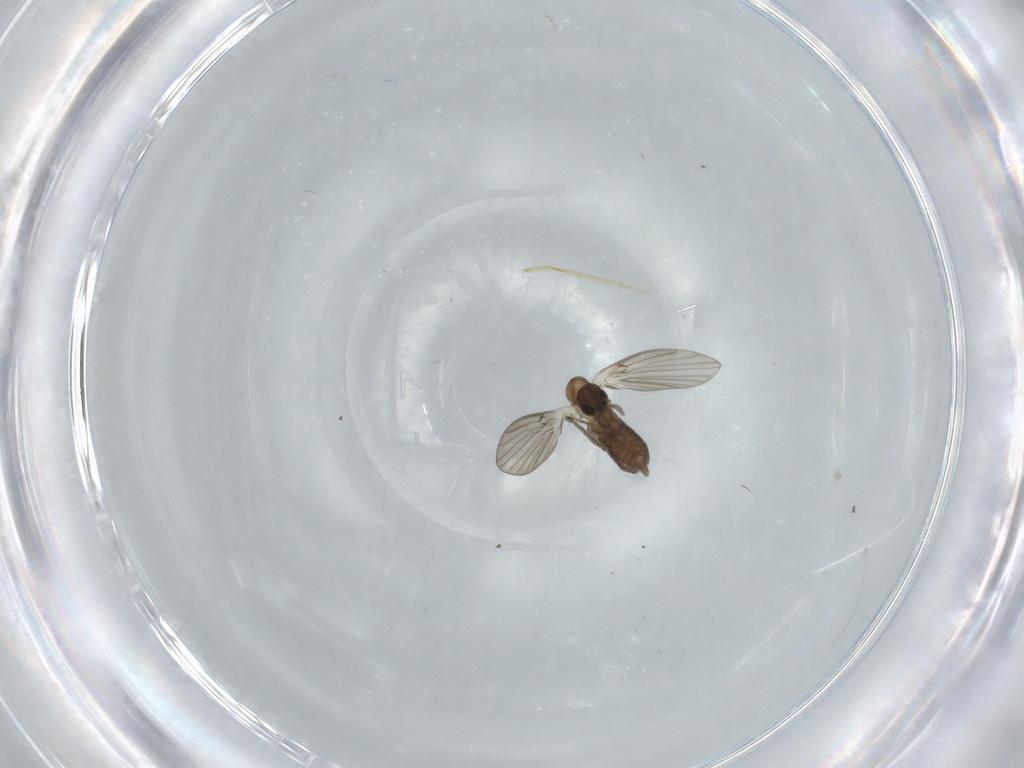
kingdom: Animalia
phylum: Arthropoda
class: Insecta
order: Diptera
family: Psychodidae
